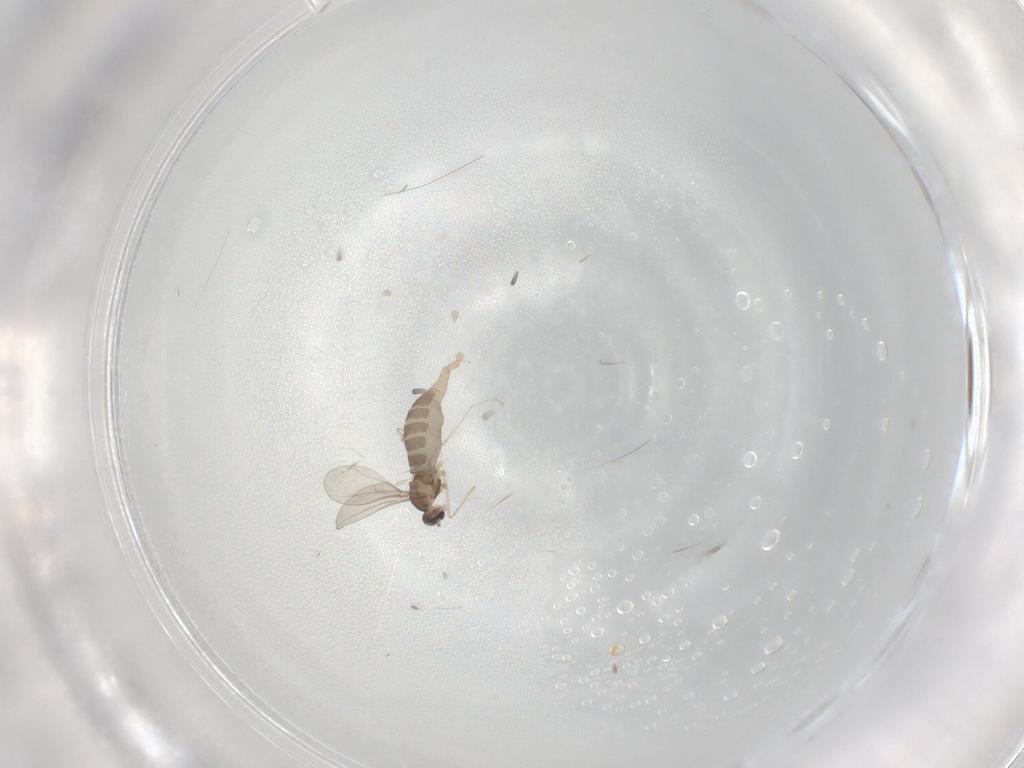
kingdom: Animalia
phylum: Arthropoda
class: Insecta
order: Diptera
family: Dolichopodidae
